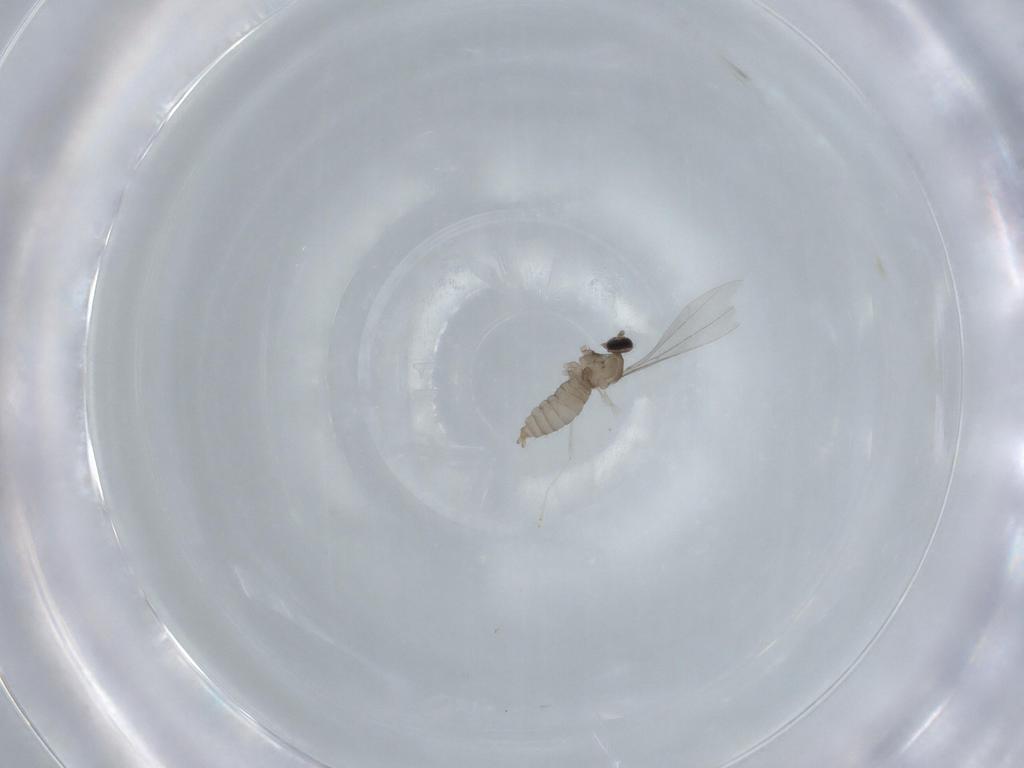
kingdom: Animalia
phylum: Arthropoda
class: Insecta
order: Diptera
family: Cecidomyiidae
